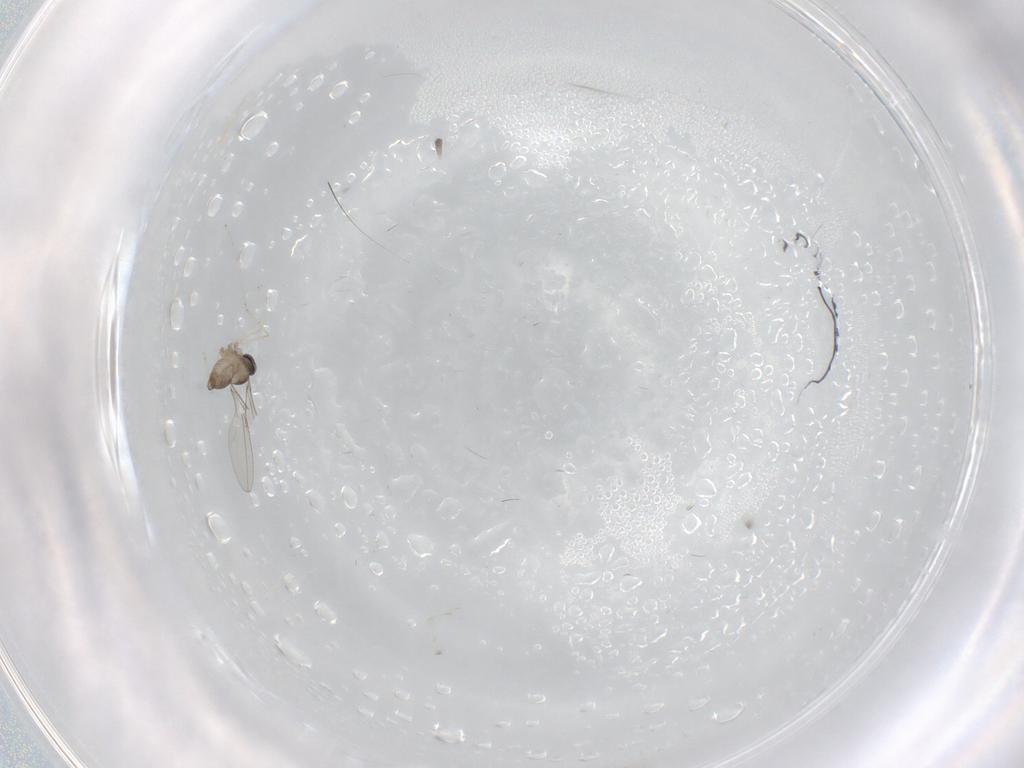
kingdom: Animalia
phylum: Arthropoda
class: Insecta
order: Diptera
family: Cecidomyiidae
